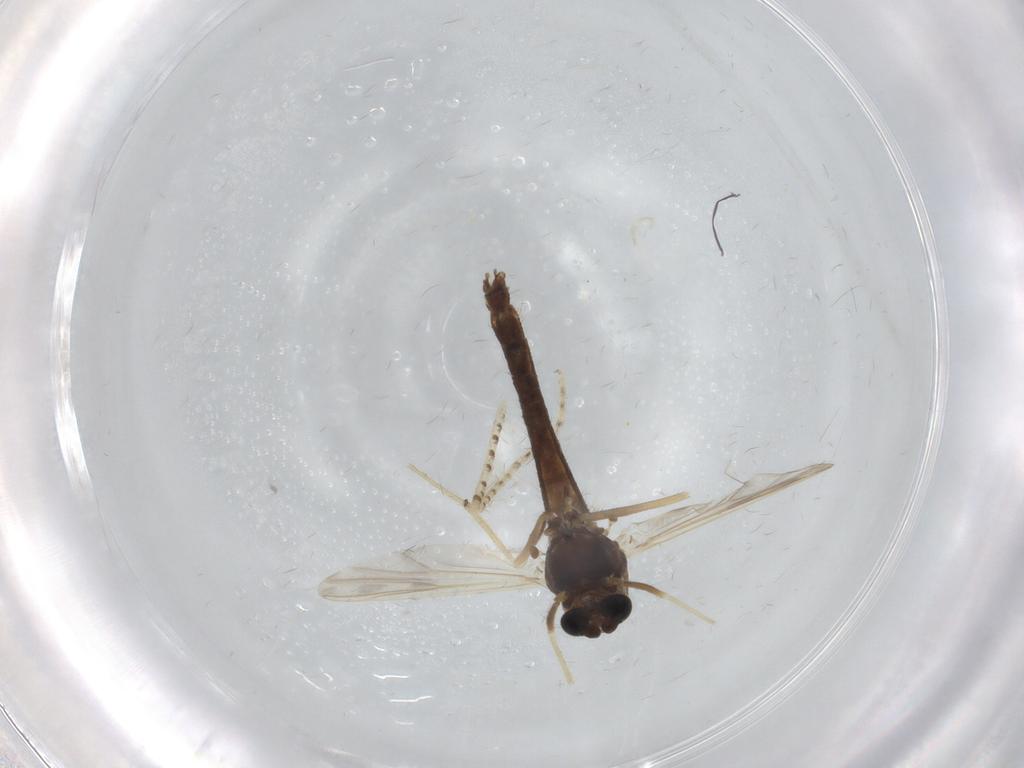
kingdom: Animalia
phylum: Arthropoda
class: Insecta
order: Diptera
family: Chironomidae
